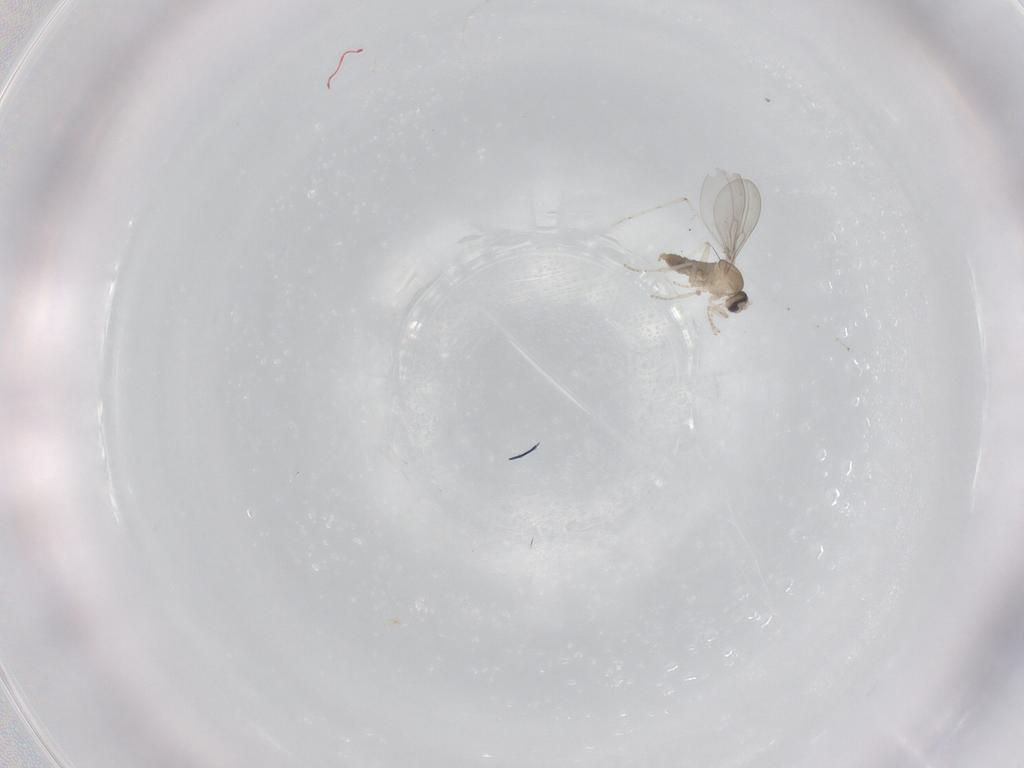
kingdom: Animalia
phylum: Arthropoda
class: Insecta
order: Diptera
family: Cecidomyiidae
